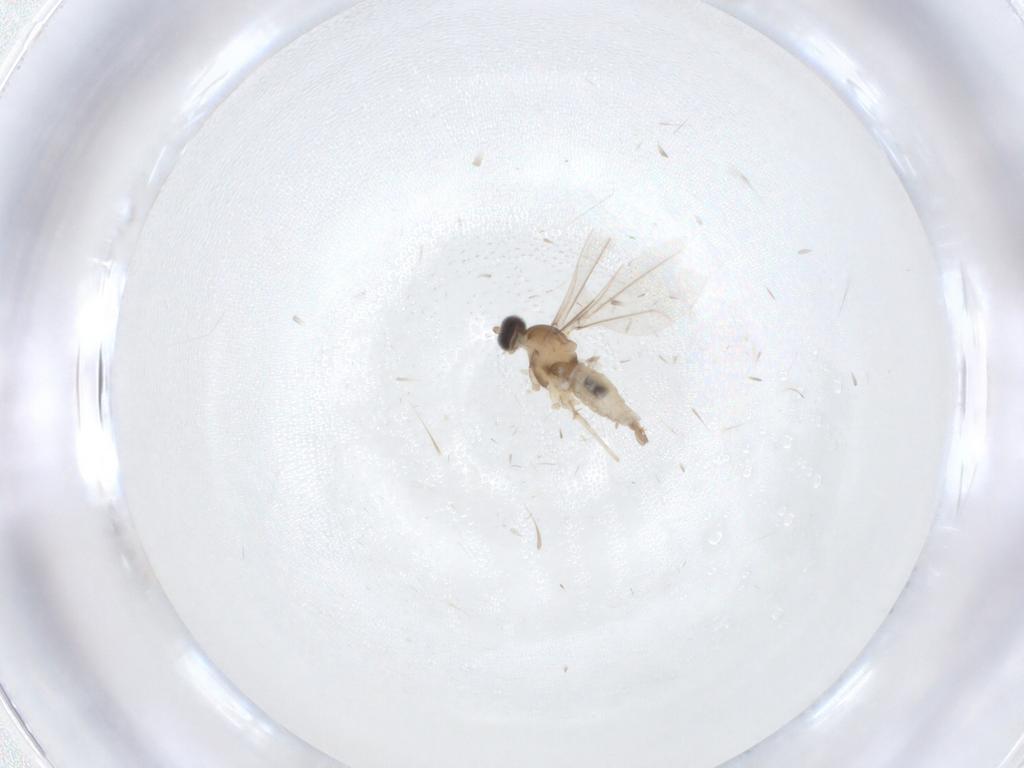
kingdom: Animalia
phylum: Arthropoda
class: Insecta
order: Diptera
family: Cecidomyiidae
